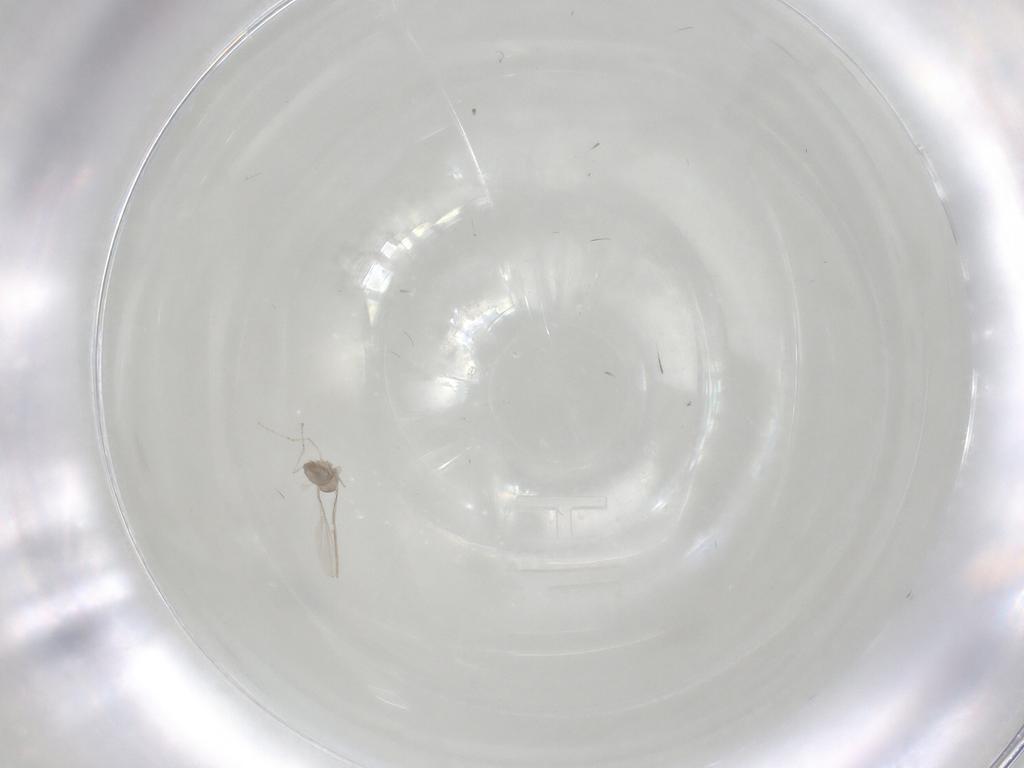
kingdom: Animalia
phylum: Arthropoda
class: Insecta
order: Diptera
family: Cecidomyiidae
